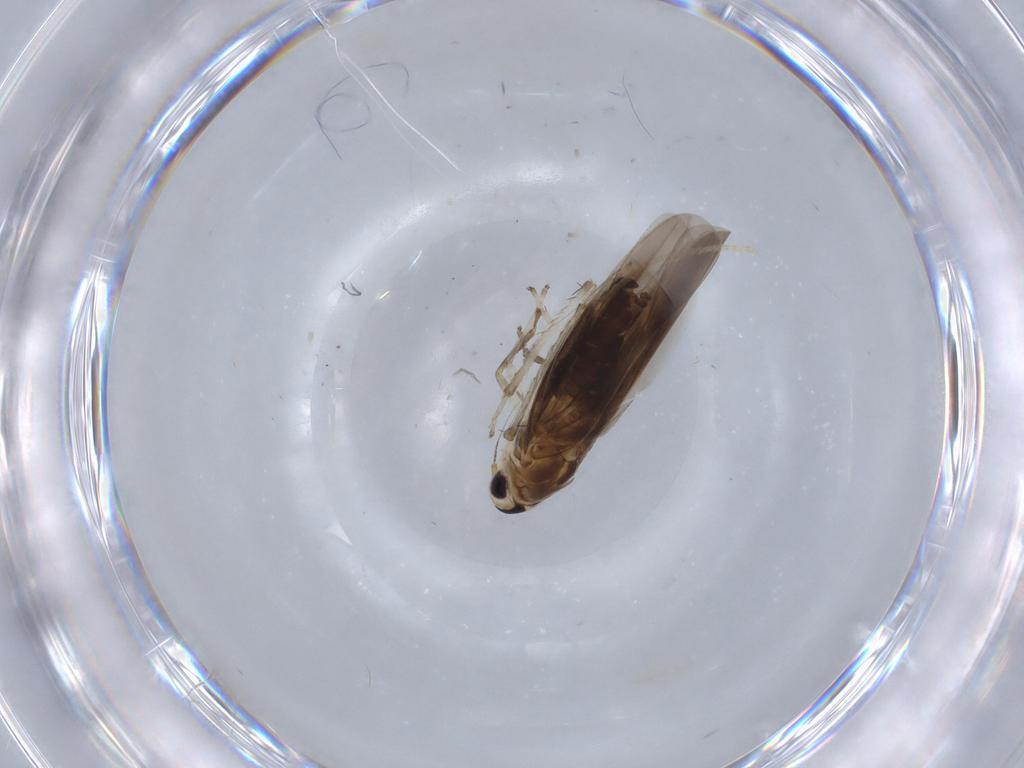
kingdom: Animalia
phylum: Arthropoda
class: Insecta
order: Hemiptera
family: Cicadellidae
